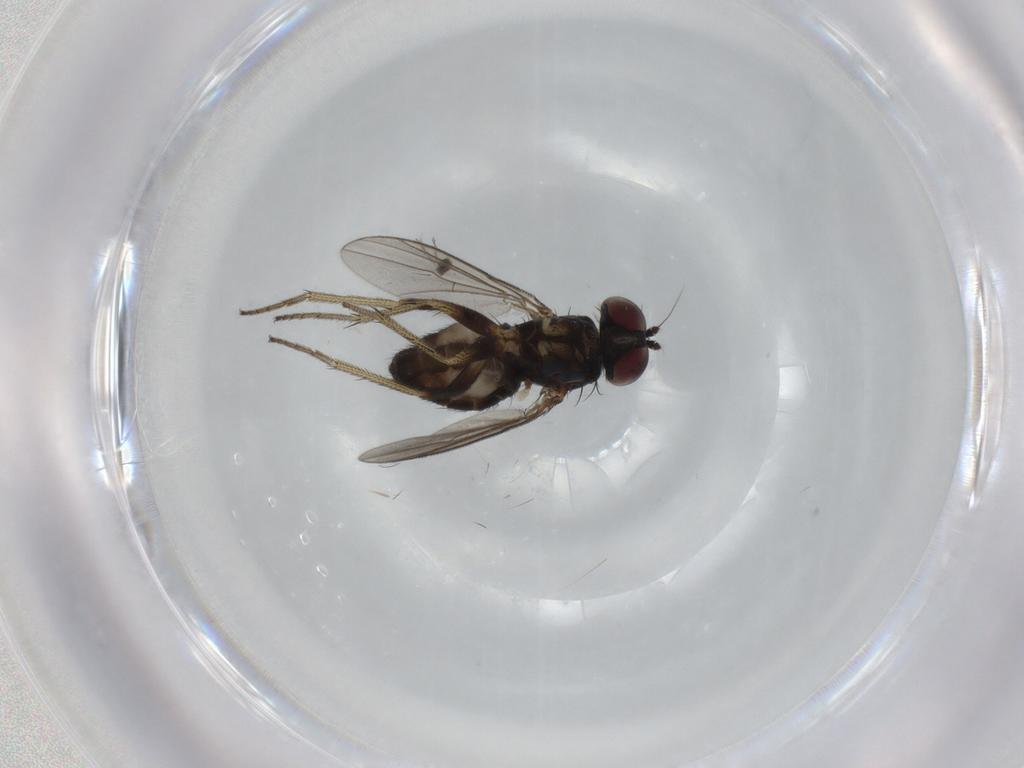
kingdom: Animalia
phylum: Arthropoda
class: Insecta
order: Diptera
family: Cecidomyiidae
